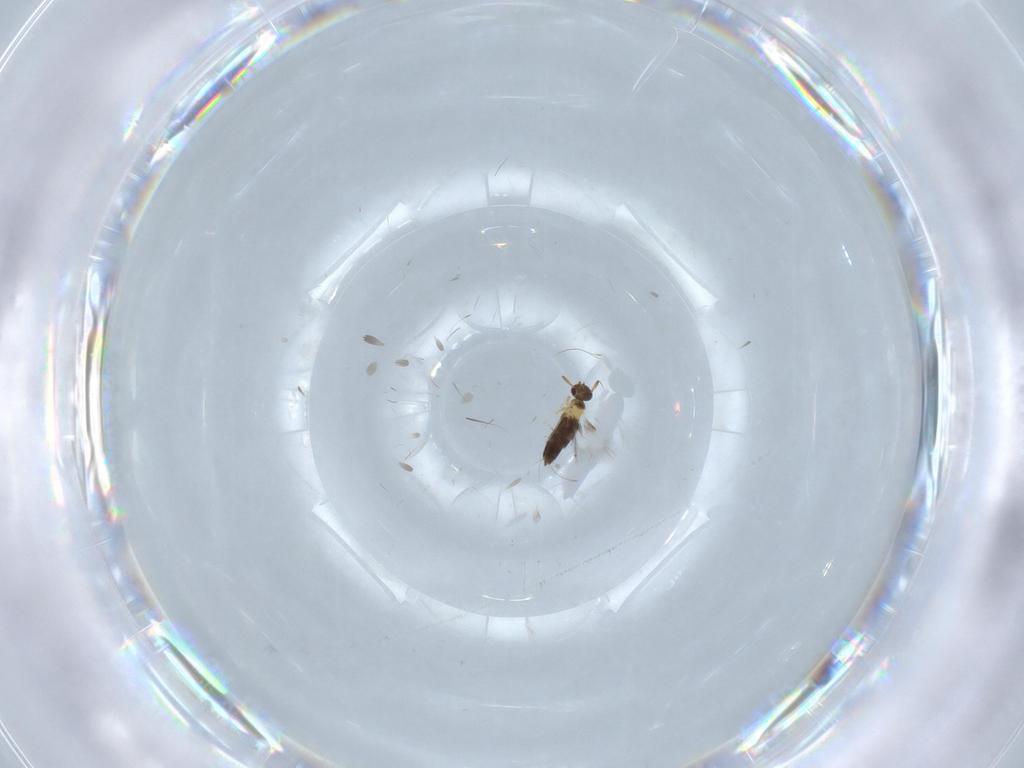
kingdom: Animalia
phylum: Arthropoda
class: Insecta
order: Hymenoptera
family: Signiphoridae
